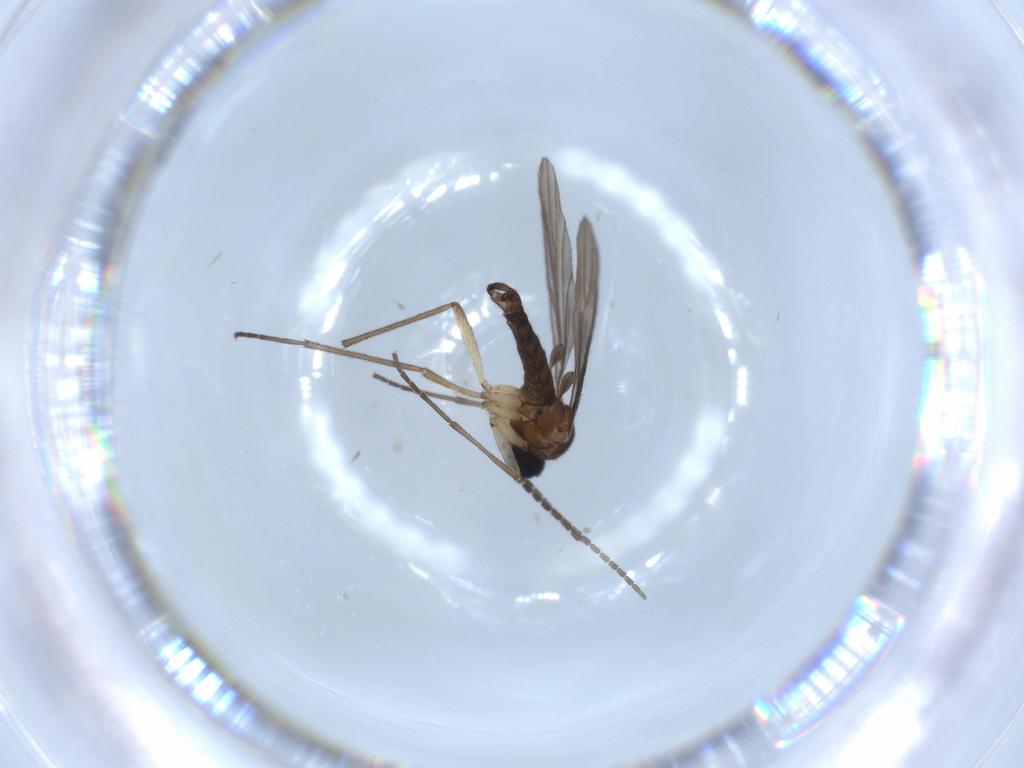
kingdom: Animalia
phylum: Arthropoda
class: Insecta
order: Diptera
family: Sciaridae
